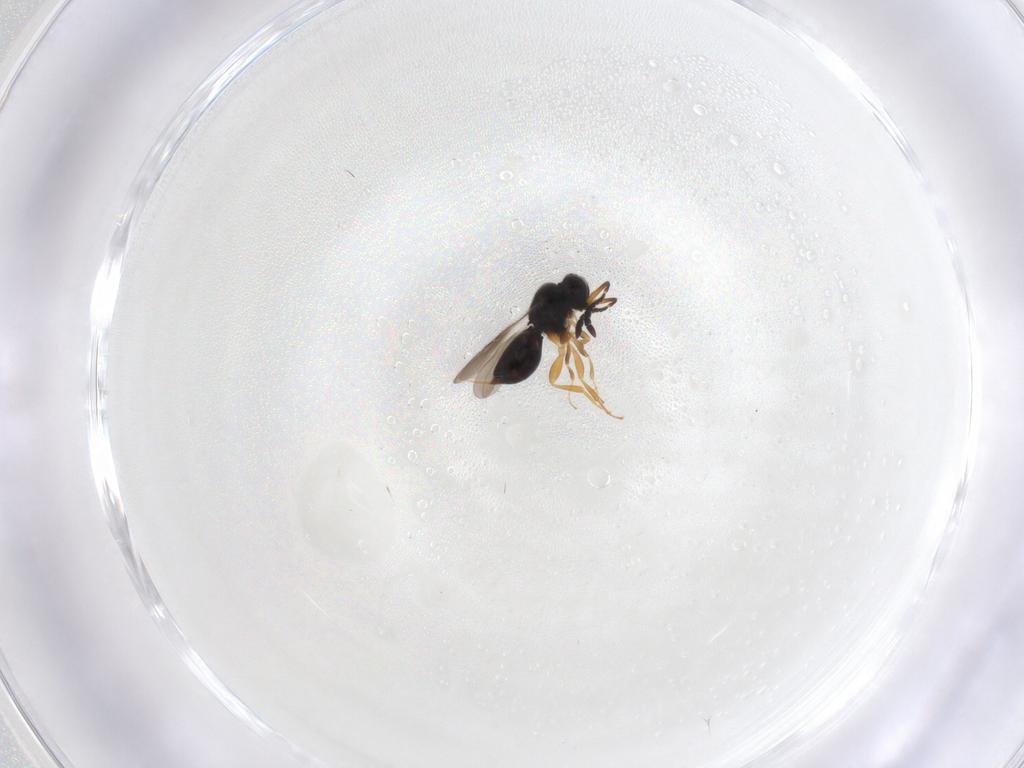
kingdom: Animalia
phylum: Arthropoda
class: Insecta
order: Hymenoptera
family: Ceraphronidae
